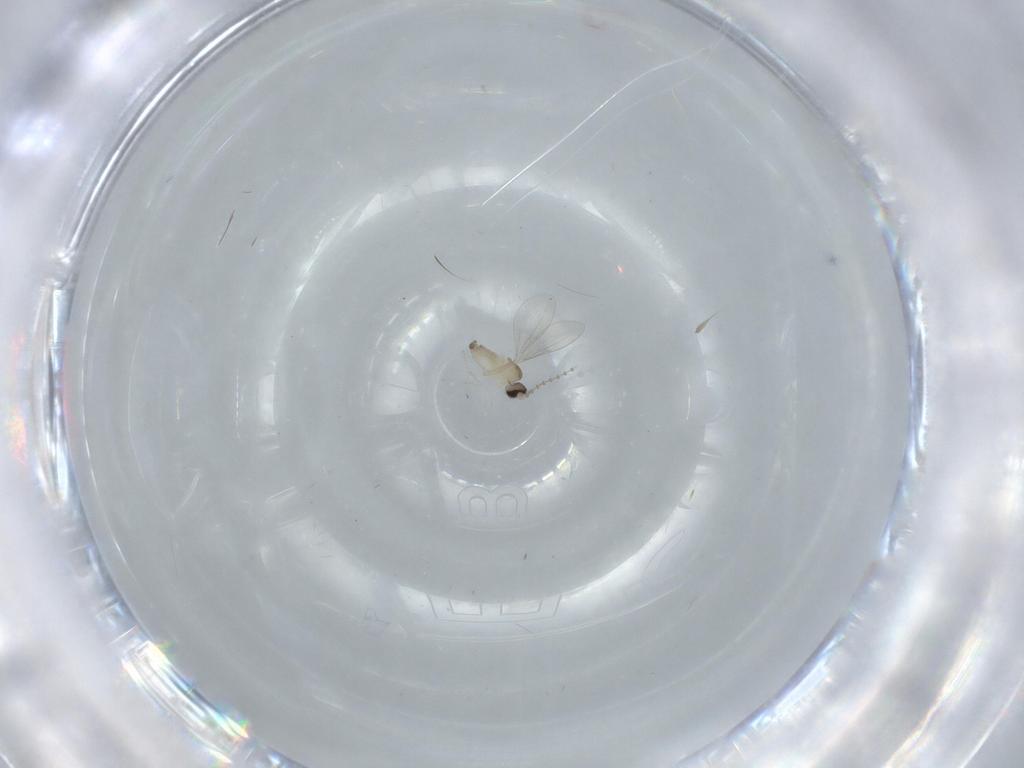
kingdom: Animalia
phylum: Arthropoda
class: Insecta
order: Diptera
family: Cecidomyiidae
